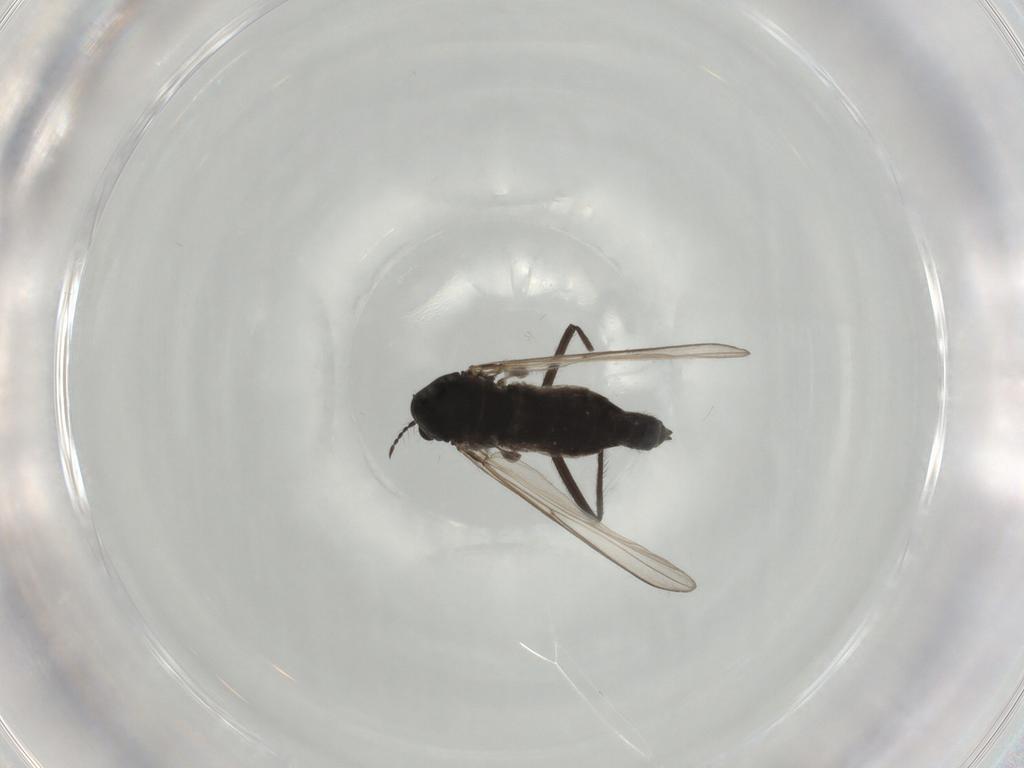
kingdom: Animalia
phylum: Arthropoda
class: Insecta
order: Diptera
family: Chironomidae
